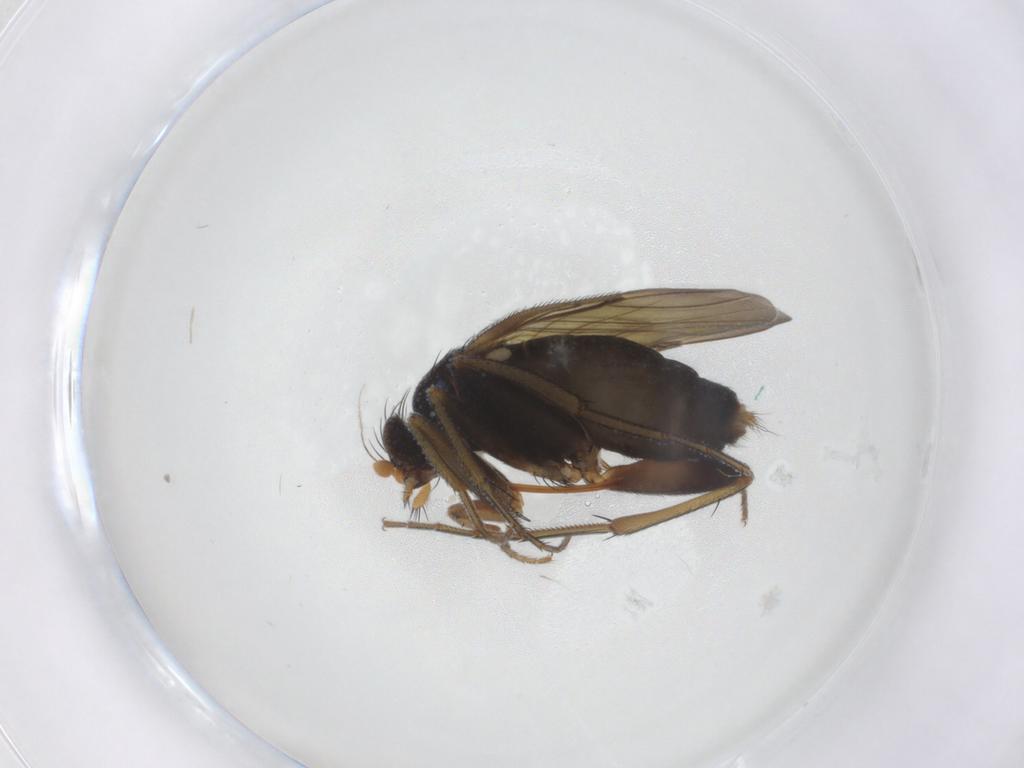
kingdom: Animalia
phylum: Arthropoda
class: Insecta
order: Diptera
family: Phoridae
